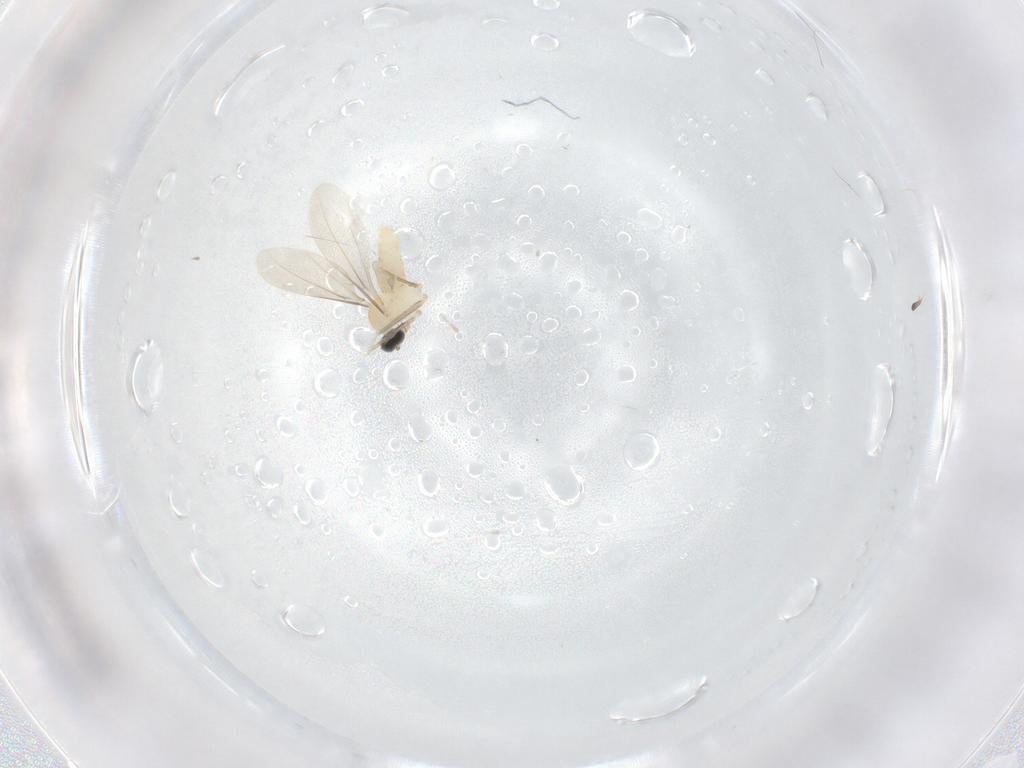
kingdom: Animalia
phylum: Arthropoda
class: Insecta
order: Diptera
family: Cecidomyiidae
